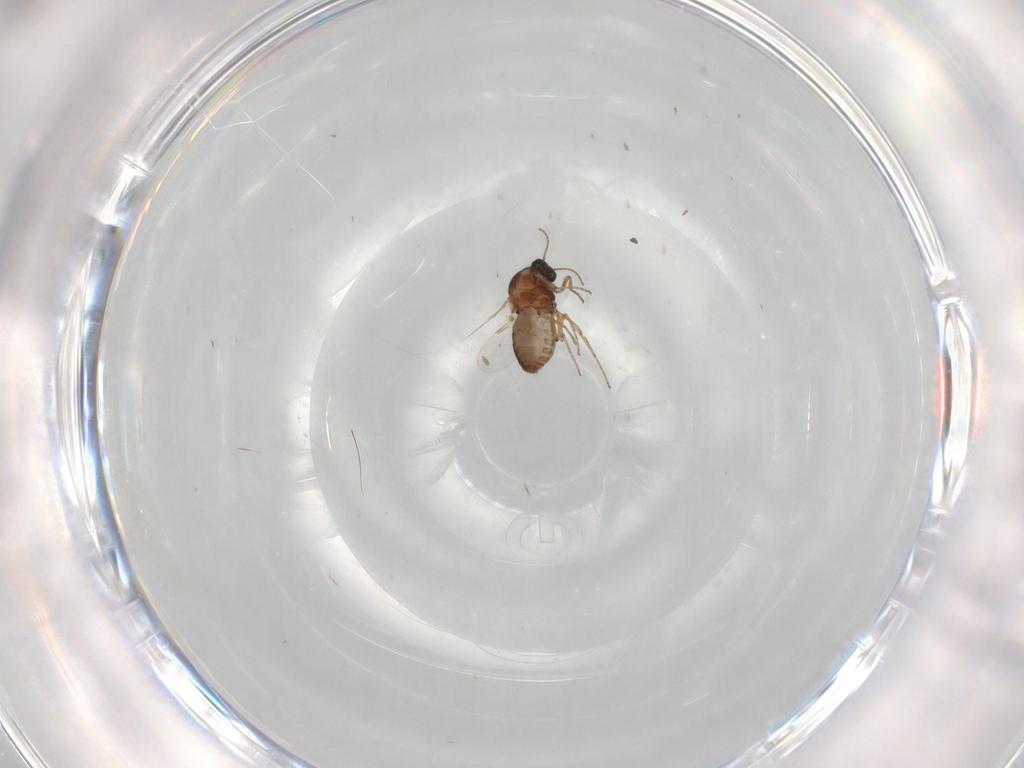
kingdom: Animalia
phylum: Arthropoda
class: Insecta
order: Diptera
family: Ceratopogonidae
